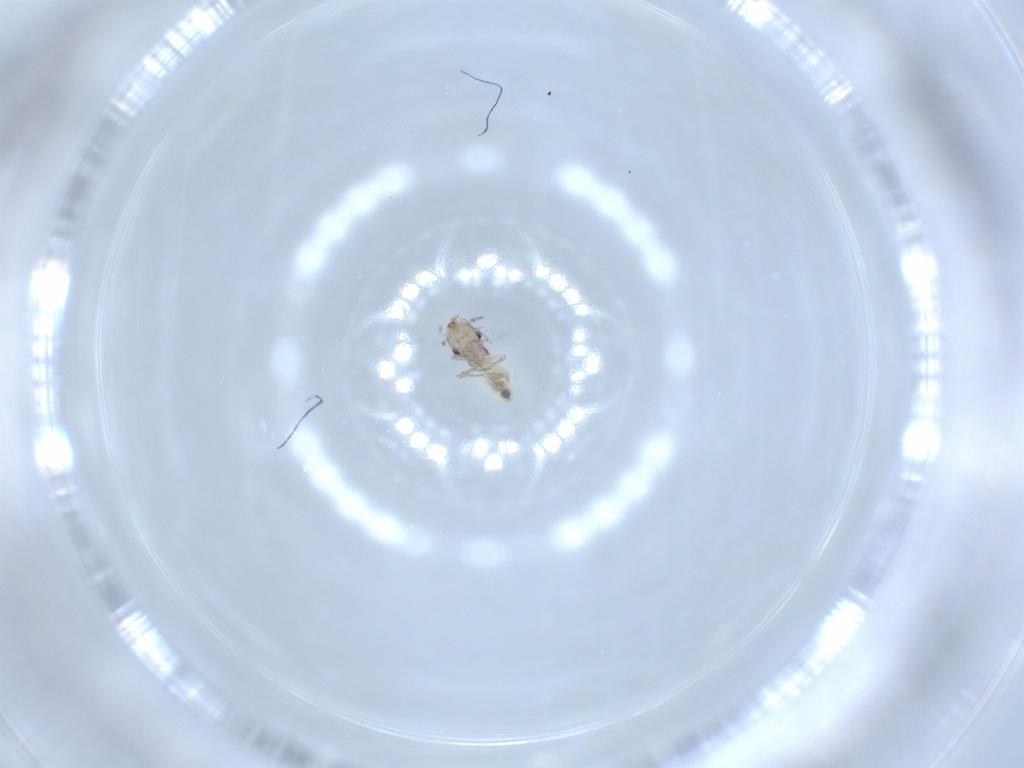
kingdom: Animalia
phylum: Arthropoda
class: Insecta
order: Psocodea
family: Lepidopsocidae
